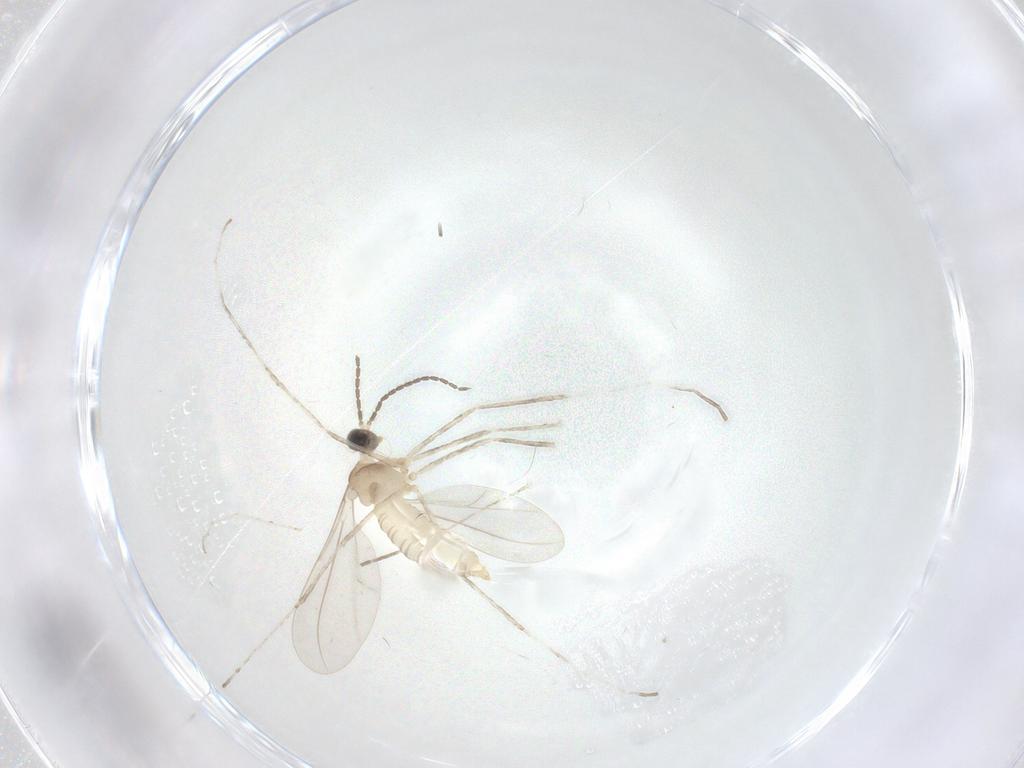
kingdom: Animalia
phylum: Arthropoda
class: Insecta
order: Diptera
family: Cecidomyiidae
